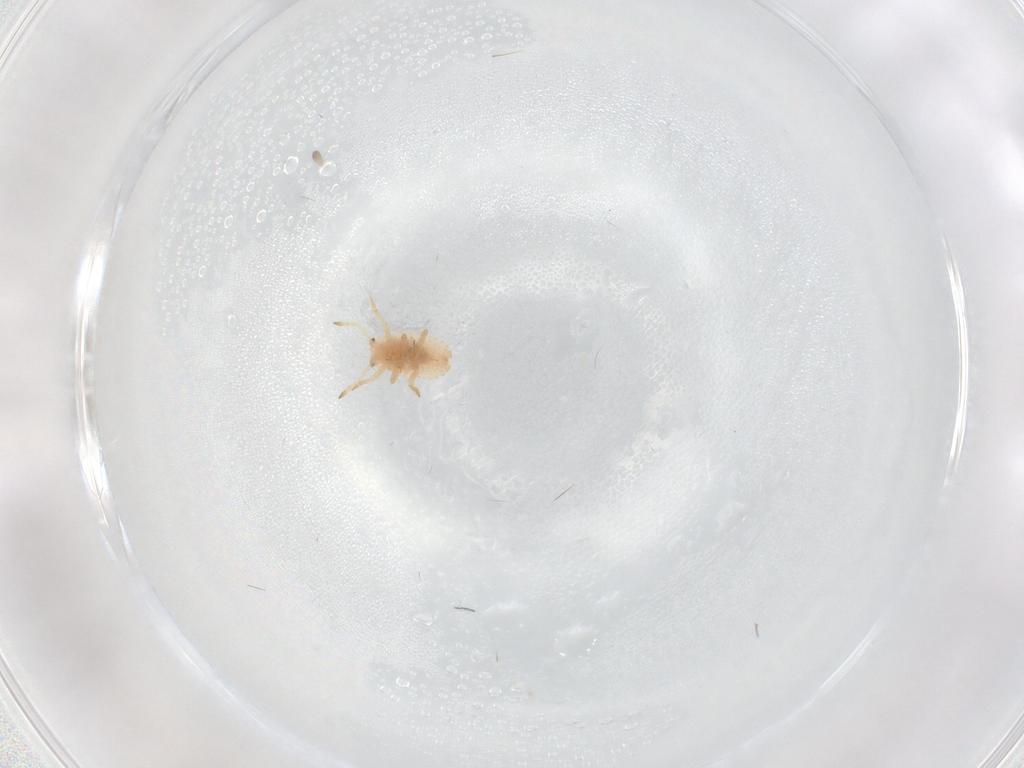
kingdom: Animalia
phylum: Arthropoda
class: Insecta
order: Hemiptera
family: Coccoidea_incertae_sedis
